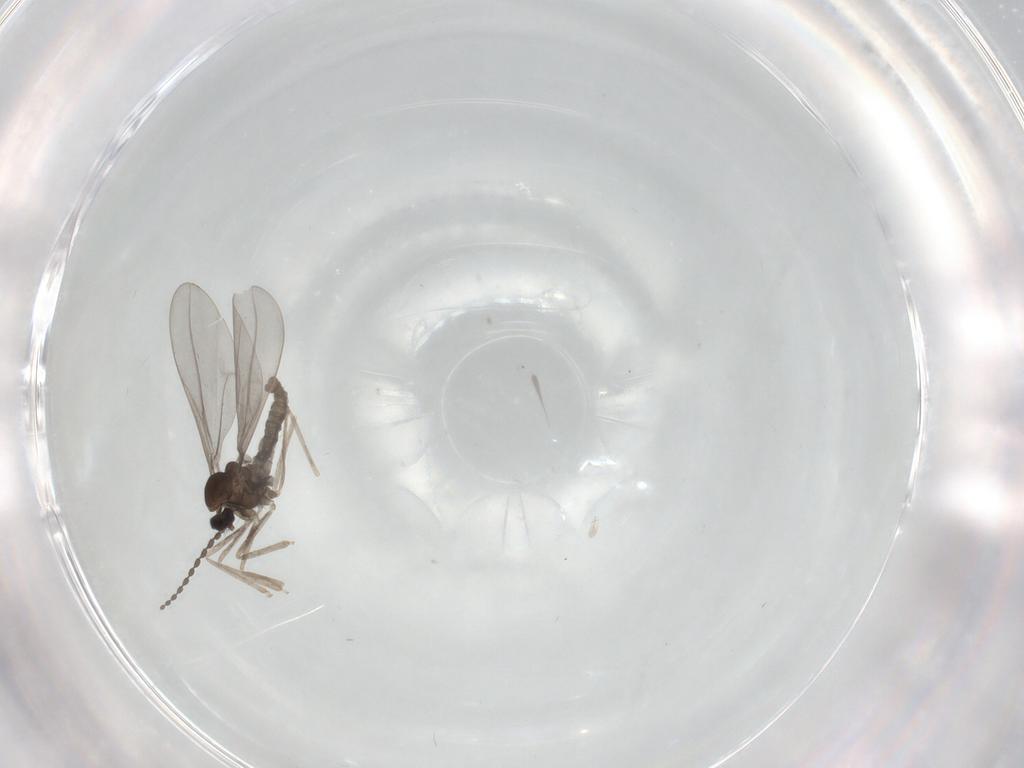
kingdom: Animalia
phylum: Arthropoda
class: Insecta
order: Diptera
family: Cecidomyiidae
